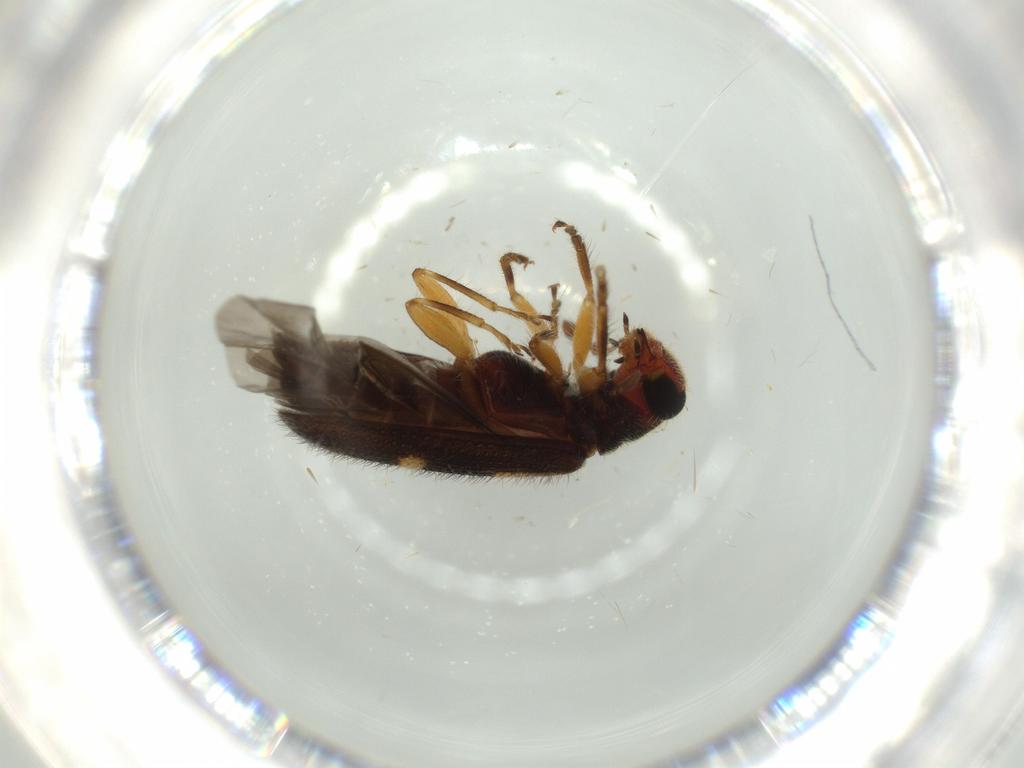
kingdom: Animalia
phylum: Arthropoda
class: Insecta
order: Coleoptera
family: Cleridae
